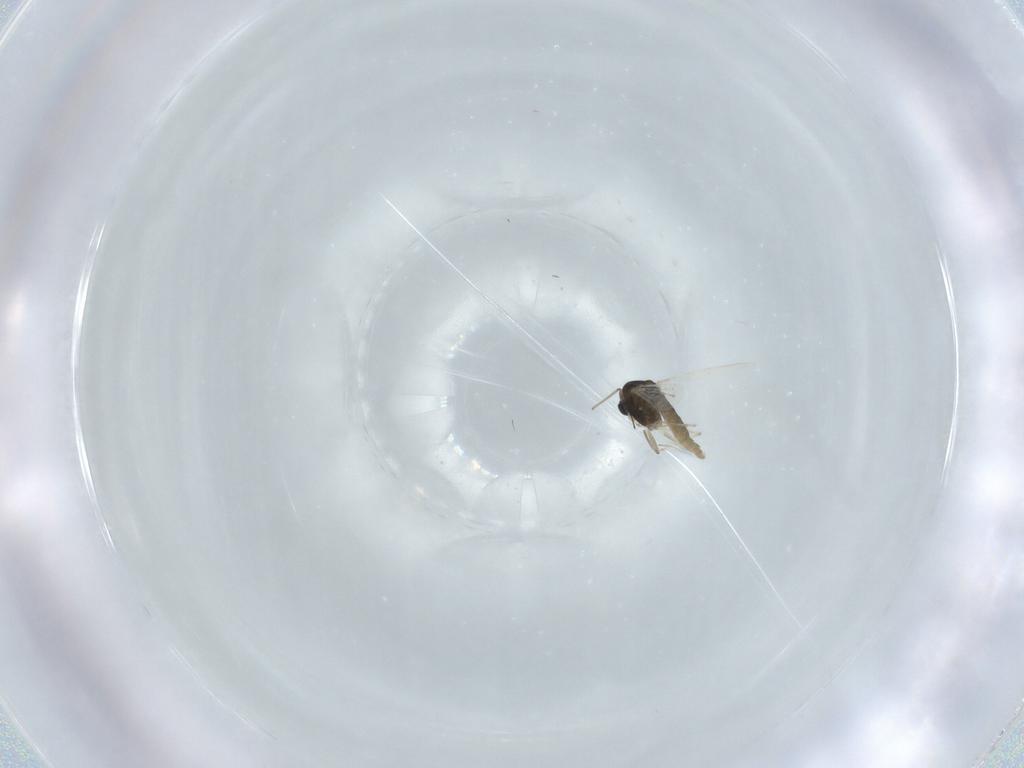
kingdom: Animalia
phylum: Arthropoda
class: Insecta
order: Diptera
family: Chironomidae
